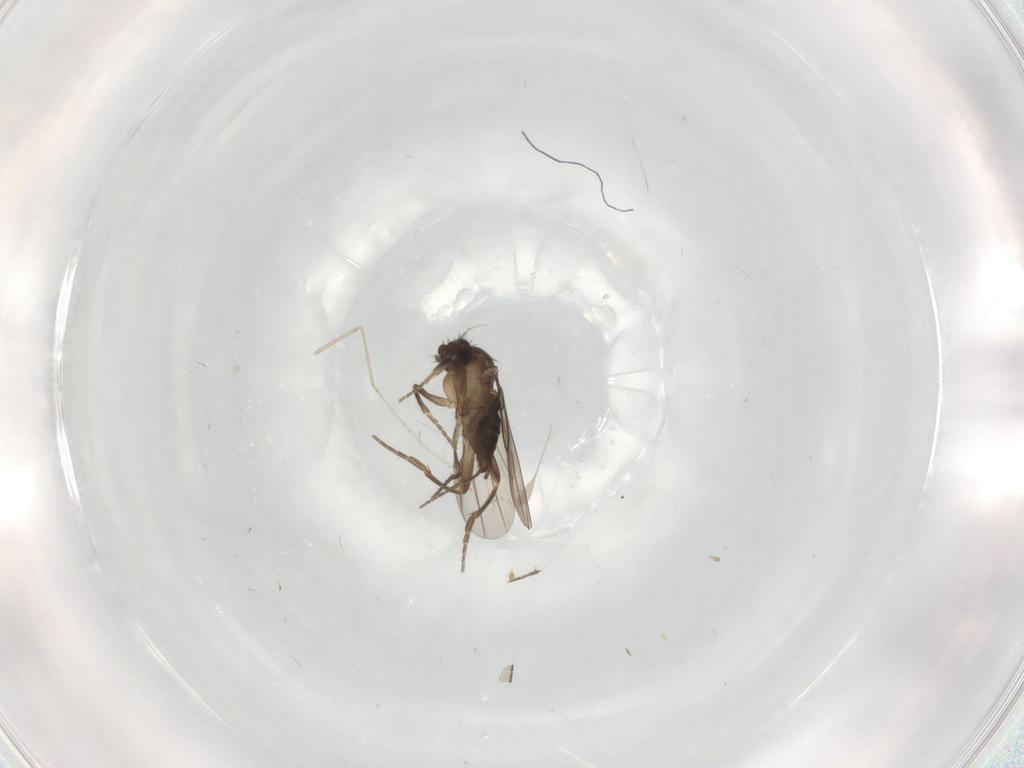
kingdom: Animalia
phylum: Arthropoda
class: Insecta
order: Diptera
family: Cecidomyiidae
